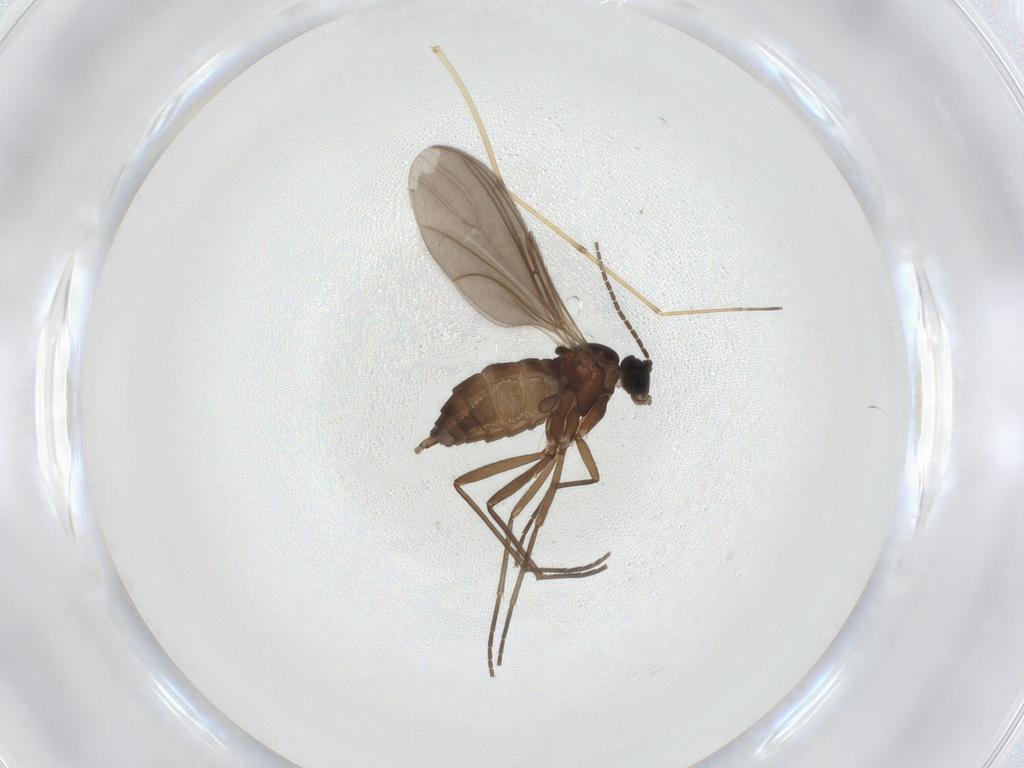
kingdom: Animalia
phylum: Arthropoda
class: Insecta
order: Diptera
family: Sciaridae
